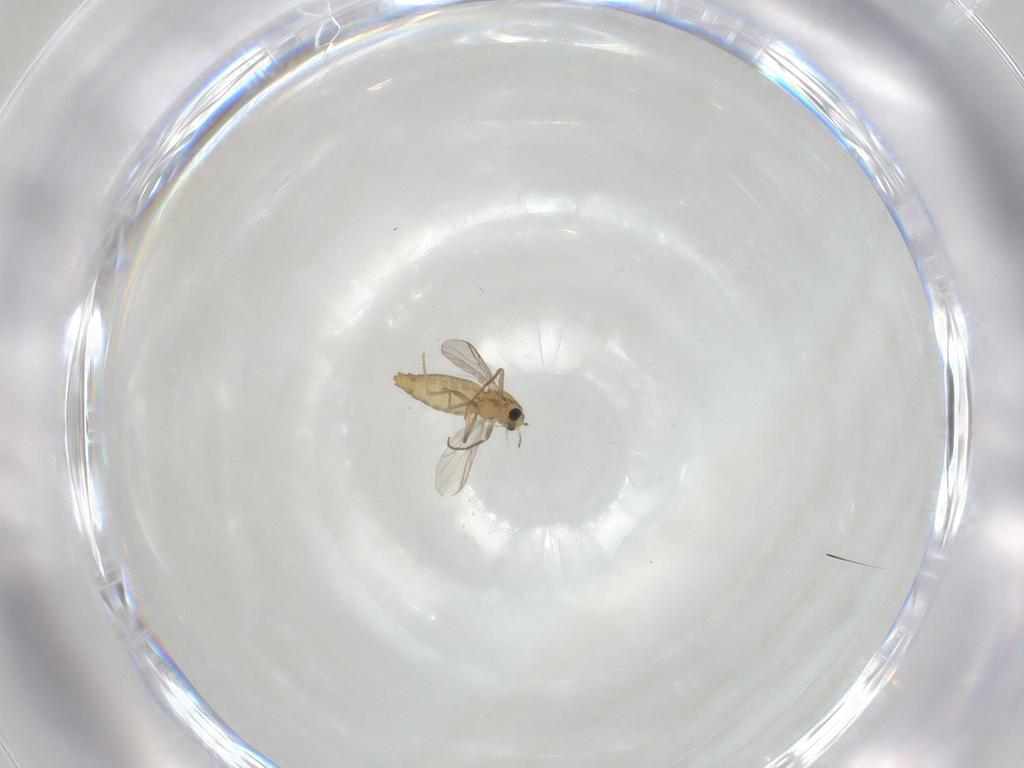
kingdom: Animalia
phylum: Arthropoda
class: Insecta
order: Diptera
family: Chironomidae
